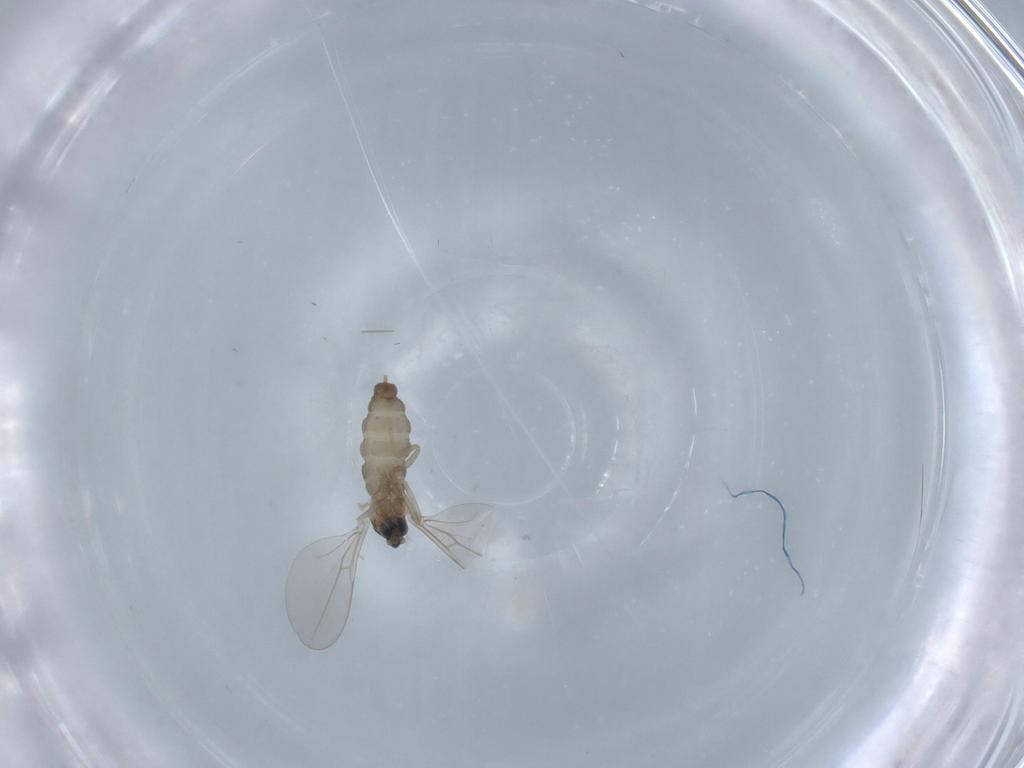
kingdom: Animalia
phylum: Arthropoda
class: Insecta
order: Diptera
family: Cecidomyiidae
